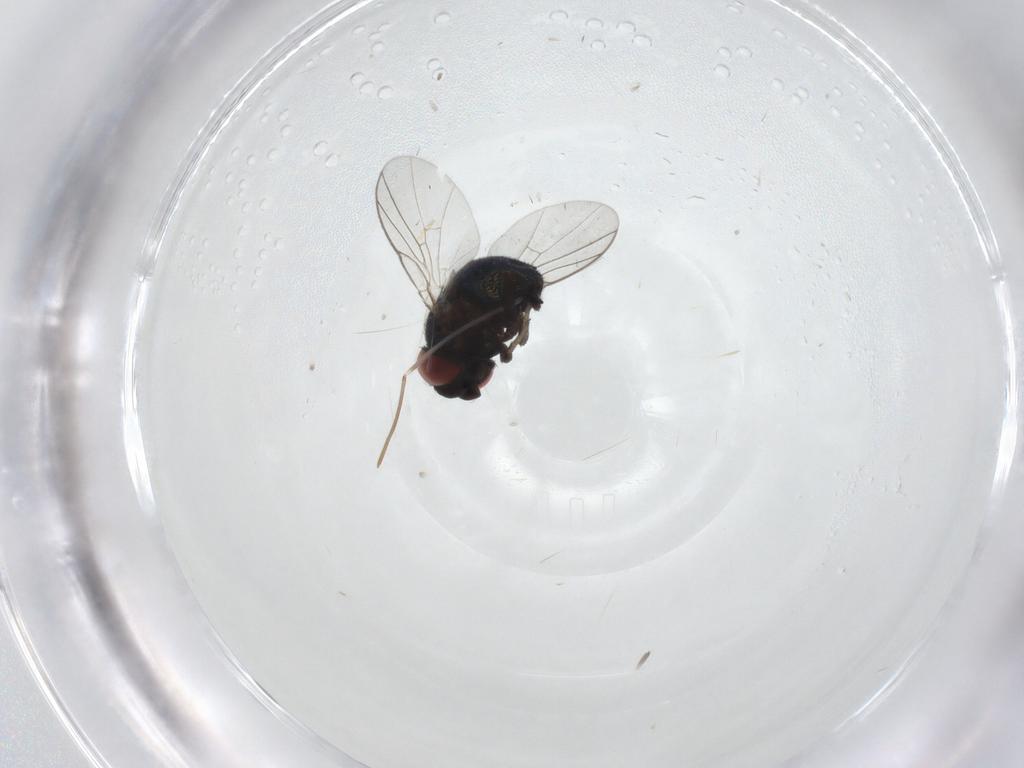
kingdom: Animalia
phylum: Arthropoda
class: Insecta
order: Diptera
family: Cryptochetidae
